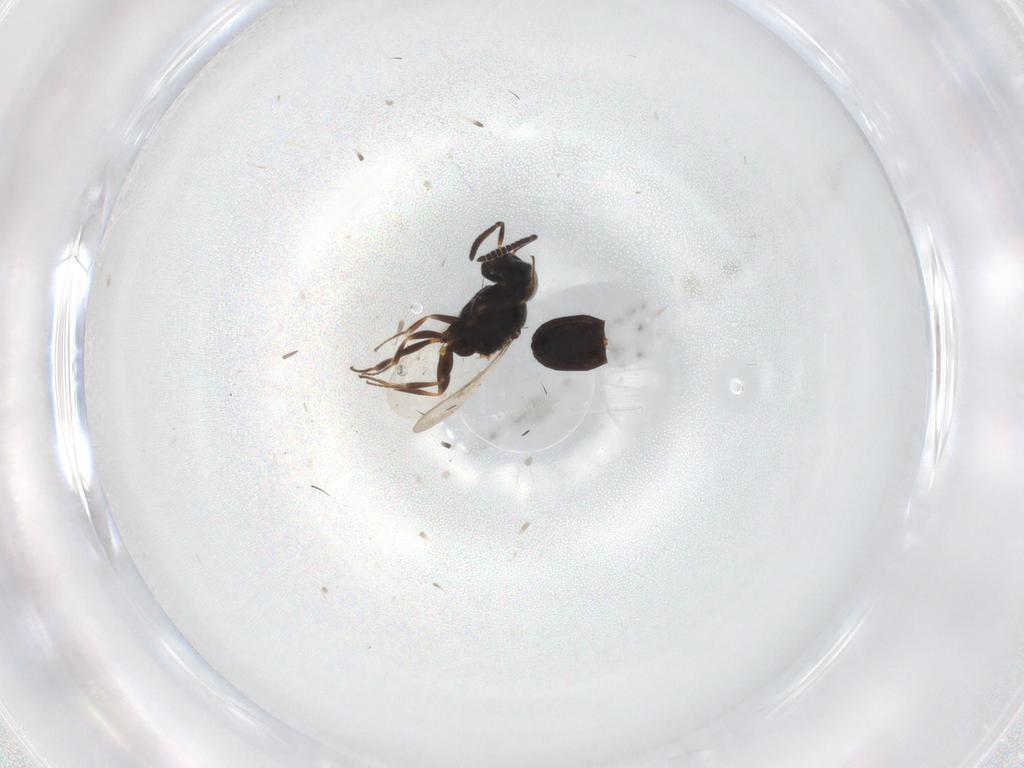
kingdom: Animalia
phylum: Arthropoda
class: Insecta
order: Hymenoptera
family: Scelionidae
